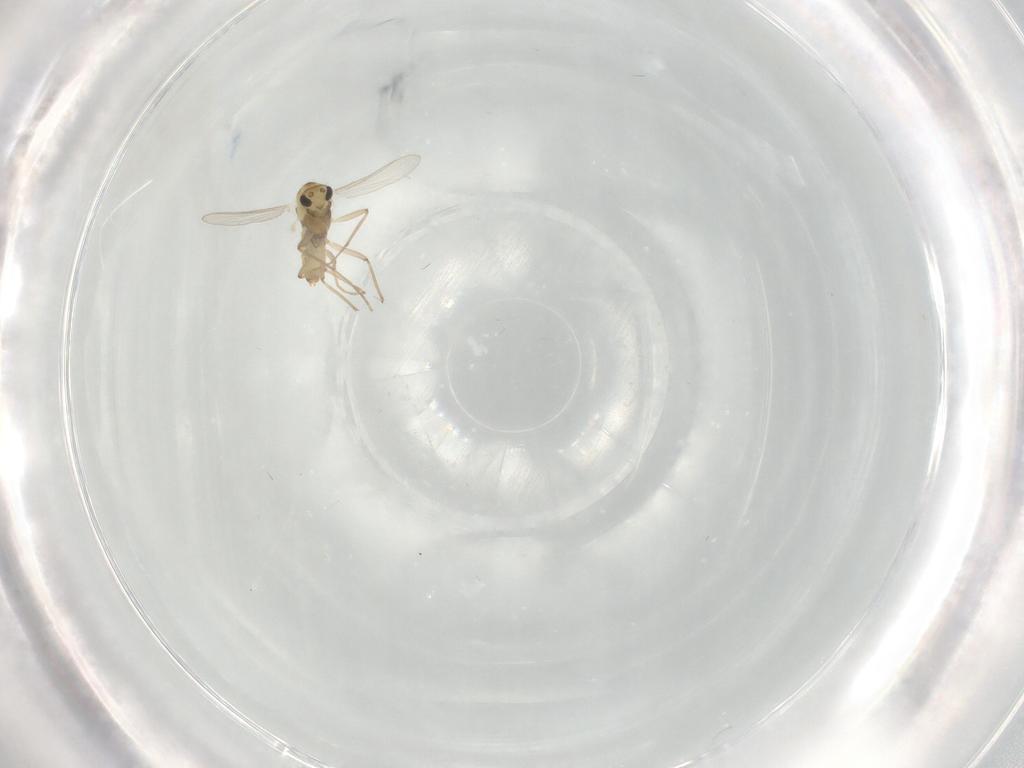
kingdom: Animalia
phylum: Arthropoda
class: Insecta
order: Diptera
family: Chironomidae
